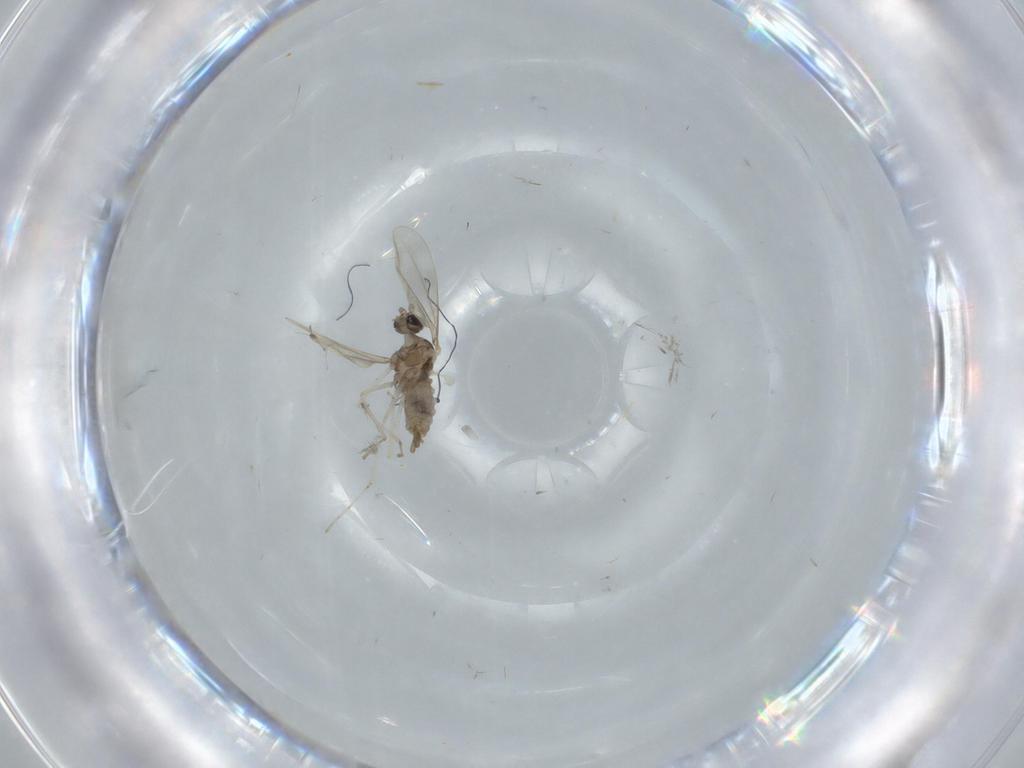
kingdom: Animalia
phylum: Arthropoda
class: Insecta
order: Diptera
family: Cecidomyiidae
